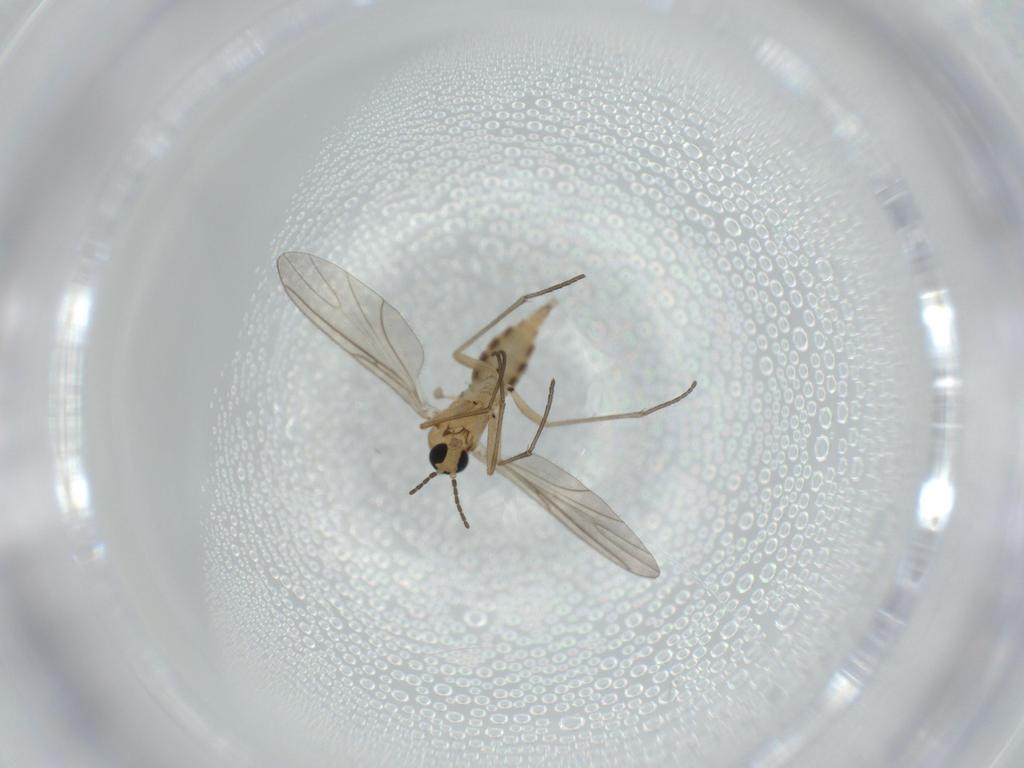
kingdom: Animalia
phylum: Arthropoda
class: Insecta
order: Diptera
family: Sciaridae
